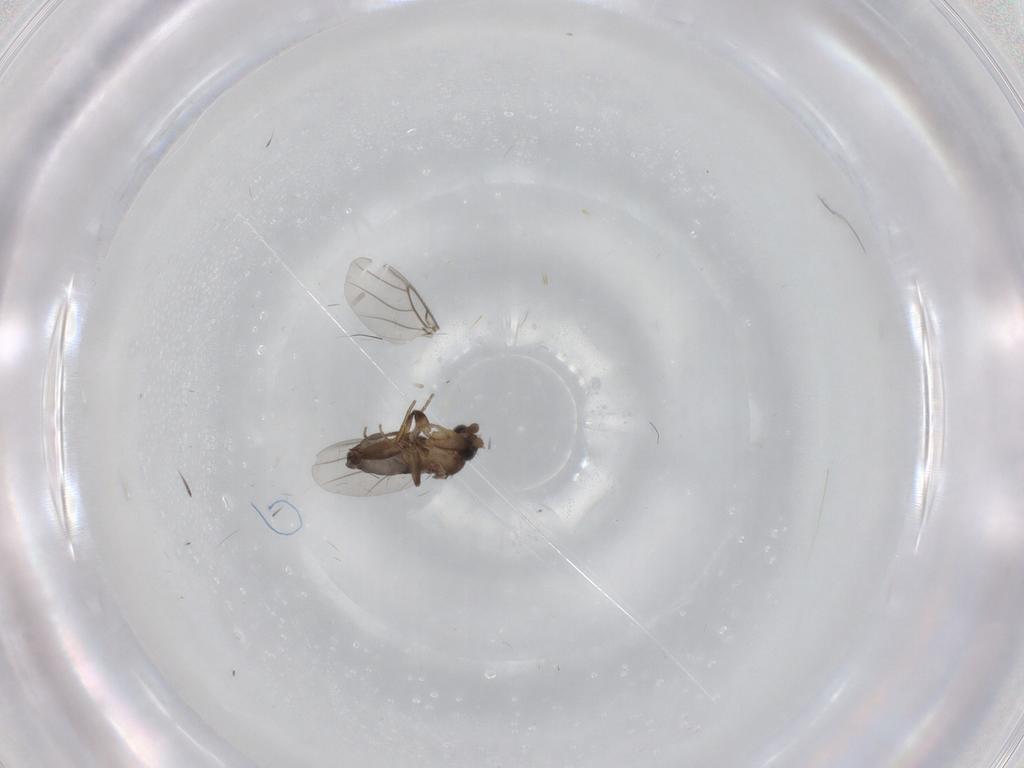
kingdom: Animalia
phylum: Arthropoda
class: Insecta
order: Diptera
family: Phoridae
